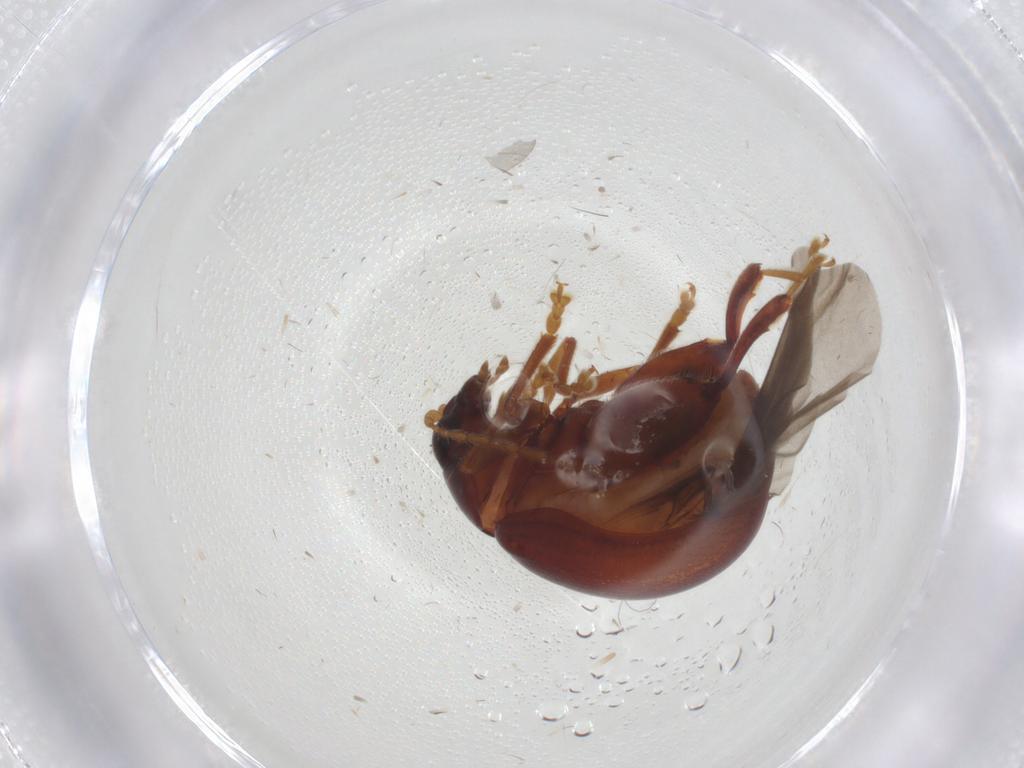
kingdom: Animalia
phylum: Arthropoda
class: Insecta
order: Coleoptera
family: Chrysomelidae
